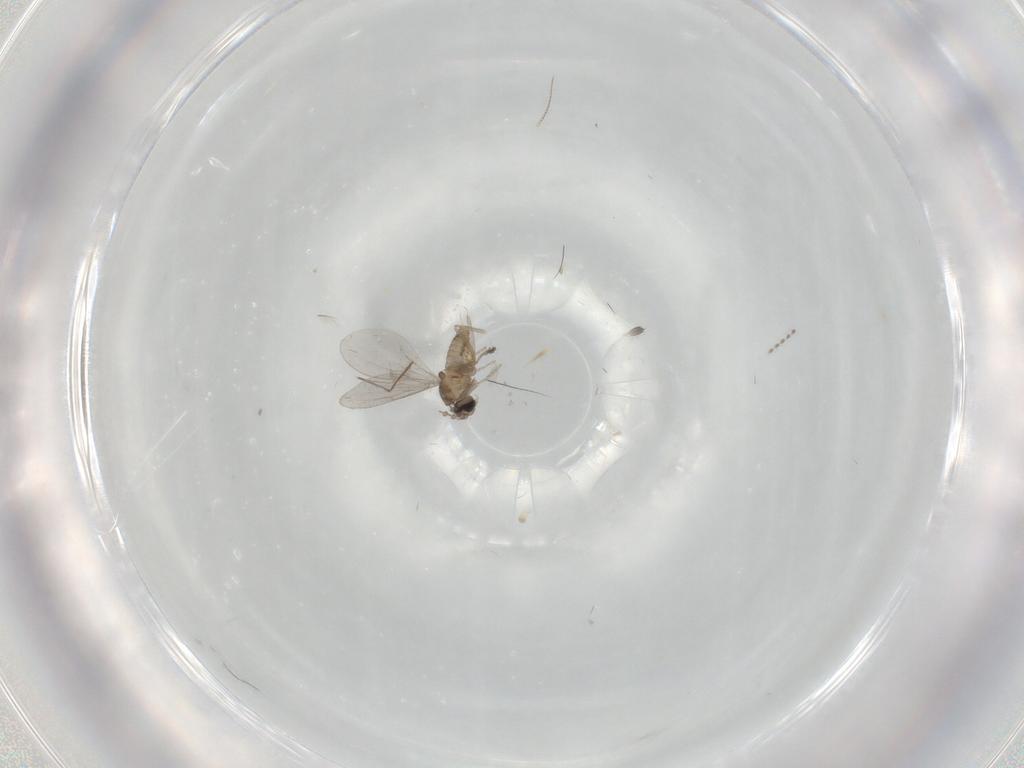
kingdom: Animalia
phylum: Arthropoda
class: Insecta
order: Diptera
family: Cecidomyiidae
